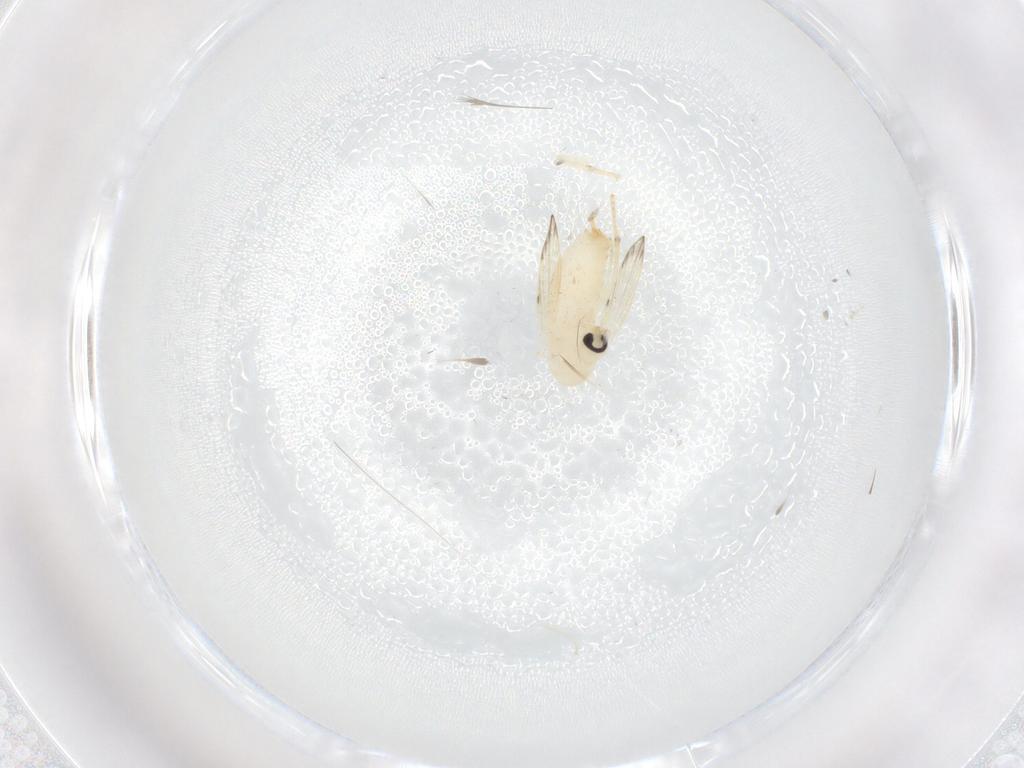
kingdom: Animalia
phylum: Arthropoda
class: Insecta
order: Diptera
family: Psychodidae
